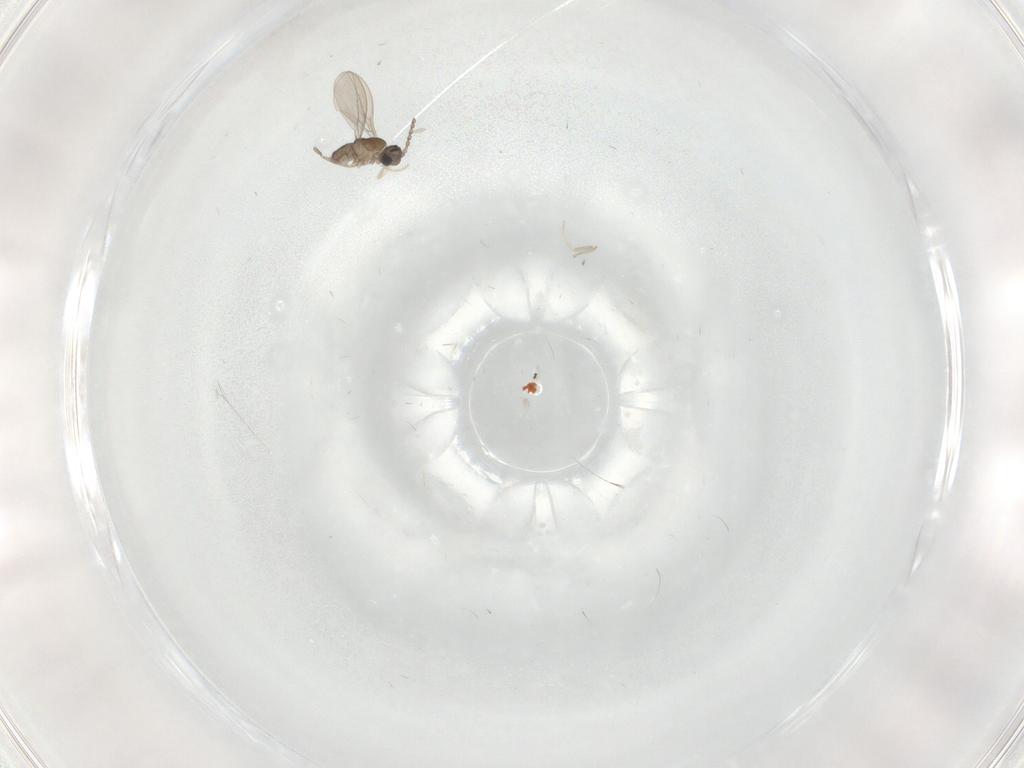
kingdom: Animalia
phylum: Arthropoda
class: Insecta
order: Diptera
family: Cecidomyiidae
